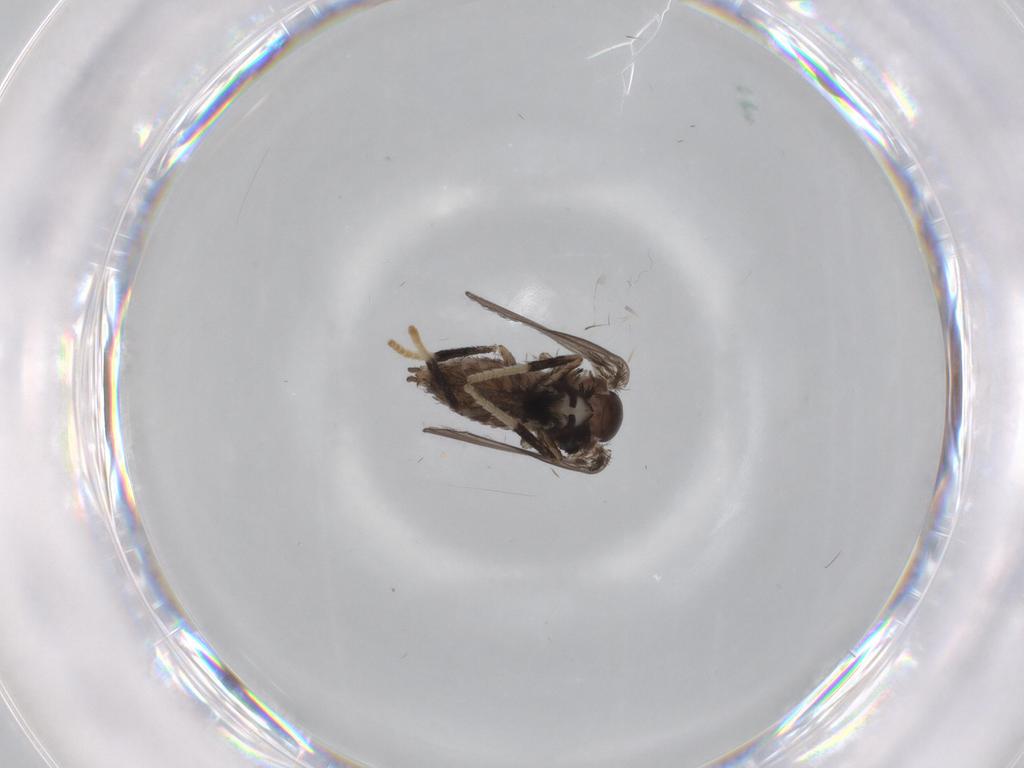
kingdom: Animalia
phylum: Arthropoda
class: Insecta
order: Diptera
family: Psychodidae
